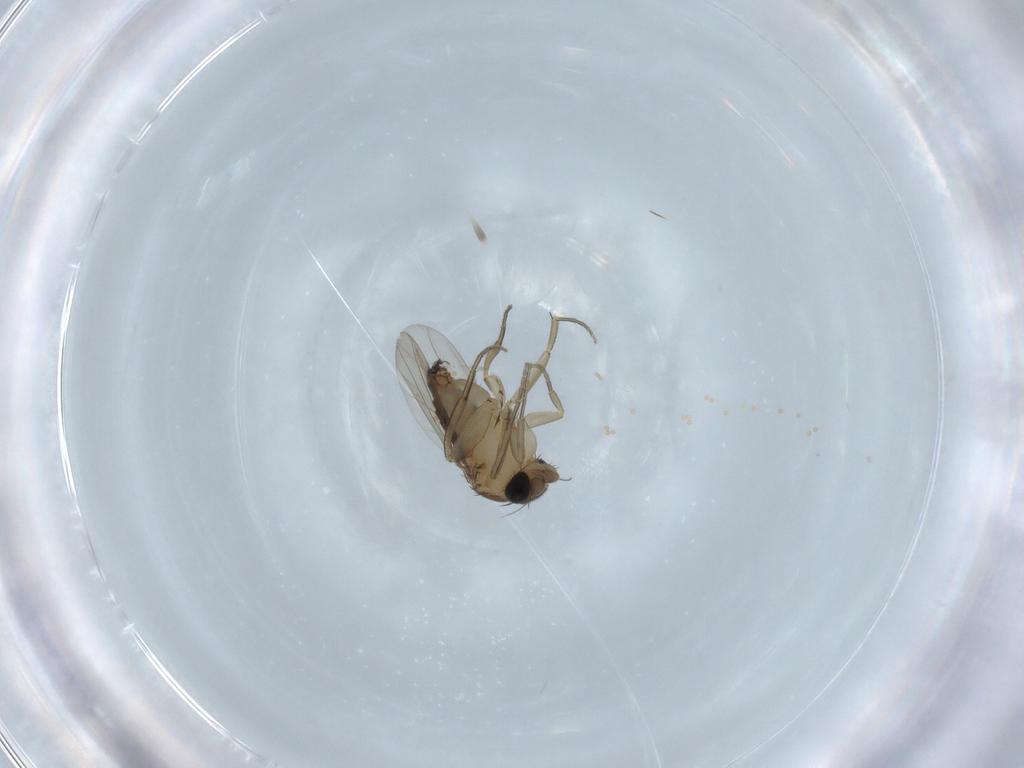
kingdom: Animalia
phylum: Arthropoda
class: Insecta
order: Diptera
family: Phoridae
